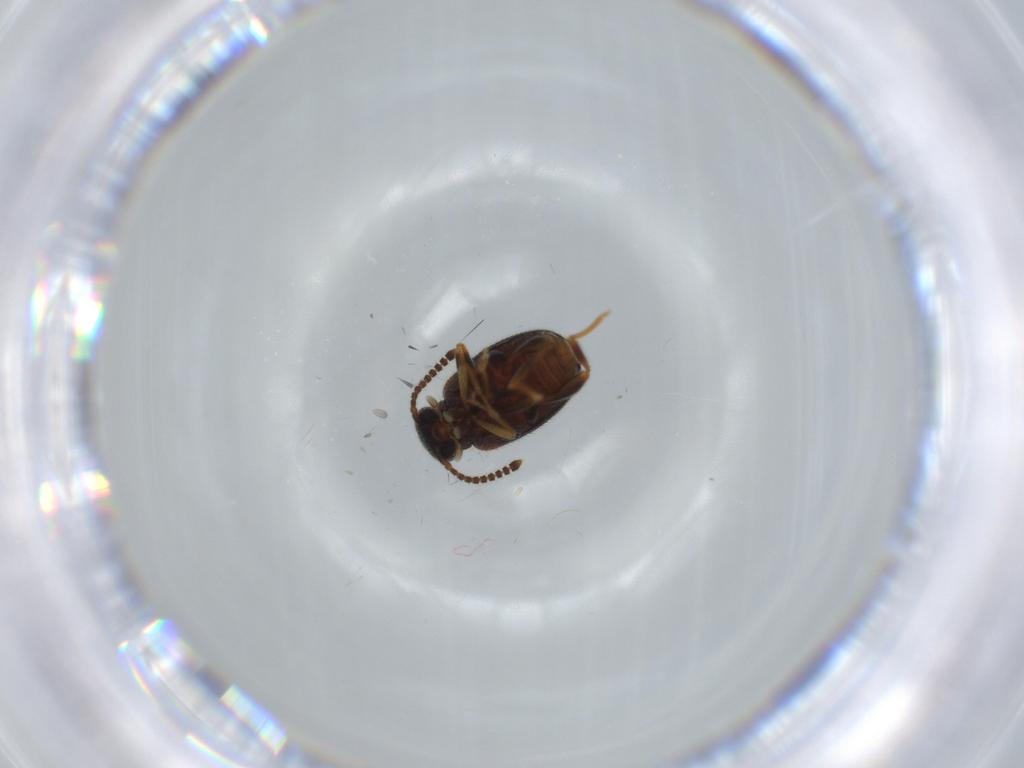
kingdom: Animalia
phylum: Arthropoda
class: Insecta
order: Coleoptera
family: Aderidae
